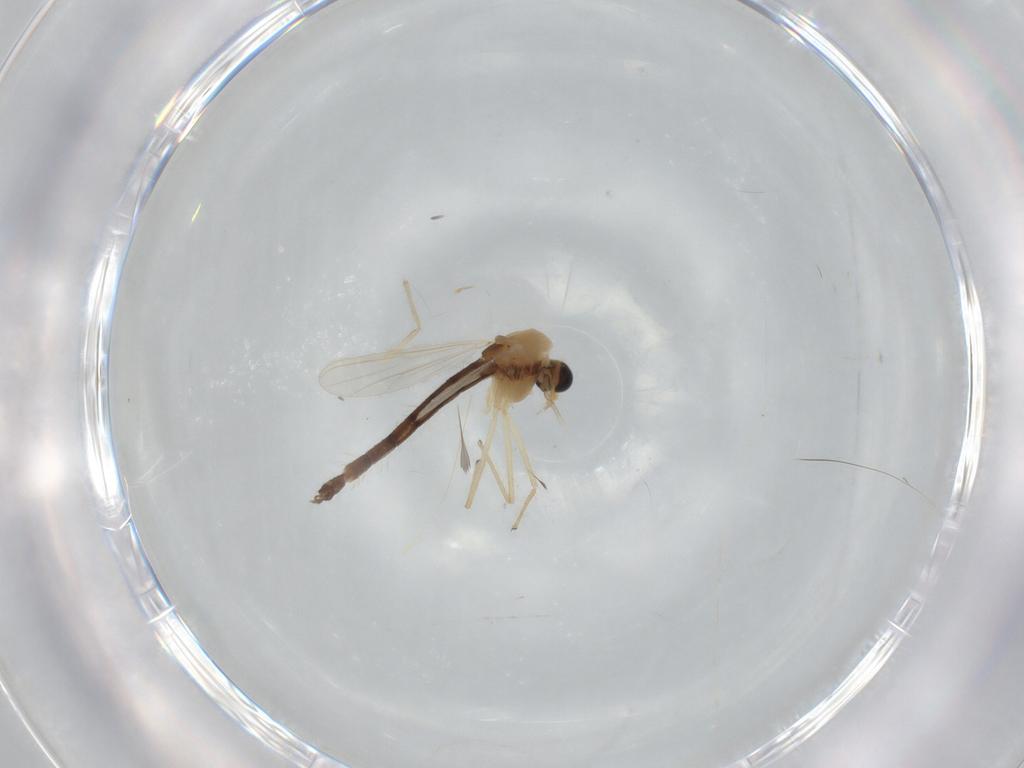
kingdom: Animalia
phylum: Arthropoda
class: Insecta
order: Diptera
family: Chironomidae
